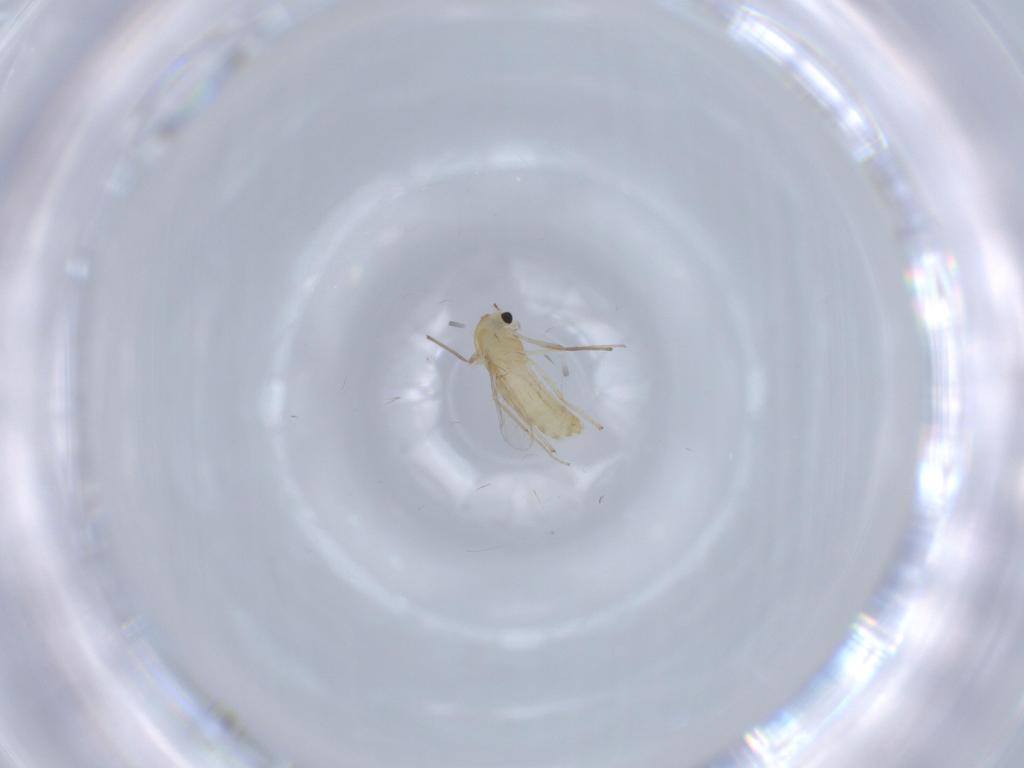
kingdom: Animalia
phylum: Arthropoda
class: Insecta
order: Diptera
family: Chironomidae
